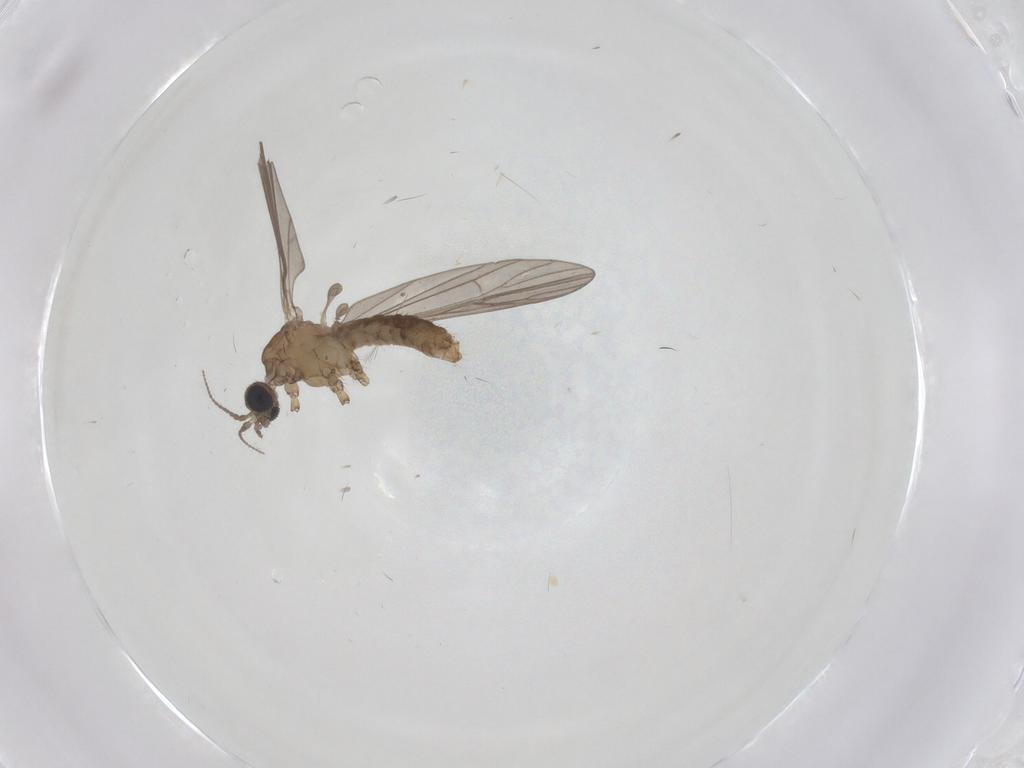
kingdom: Animalia
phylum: Arthropoda
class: Insecta
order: Diptera
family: Limoniidae
